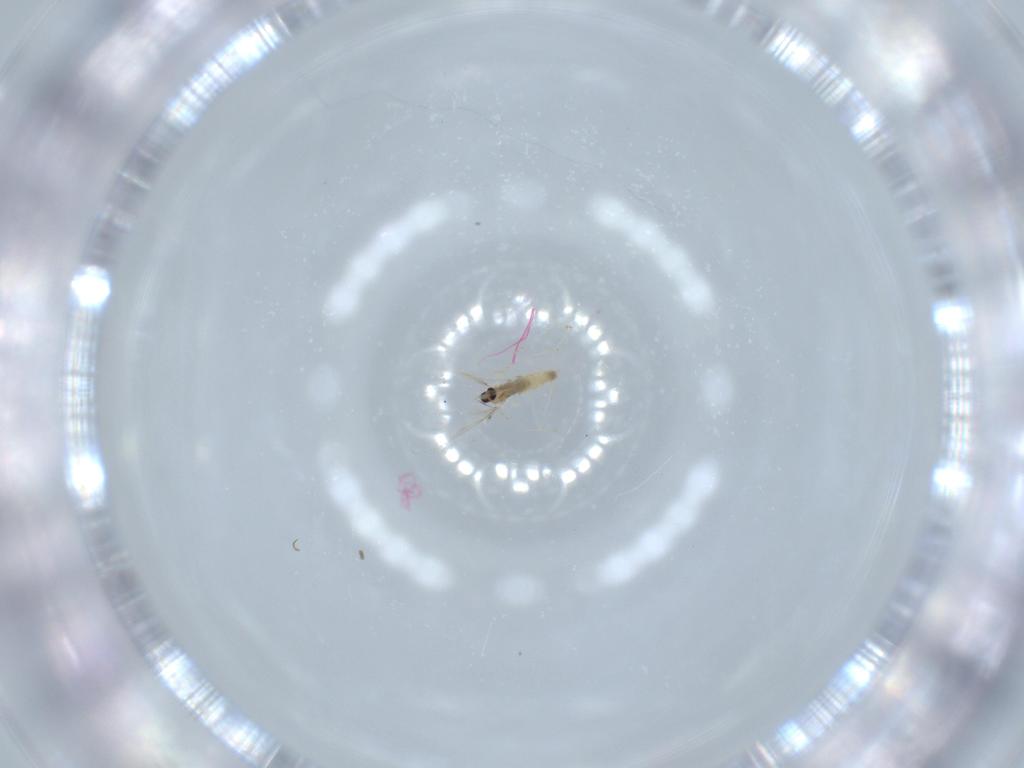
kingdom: Animalia
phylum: Arthropoda
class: Insecta
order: Diptera
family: Cecidomyiidae
